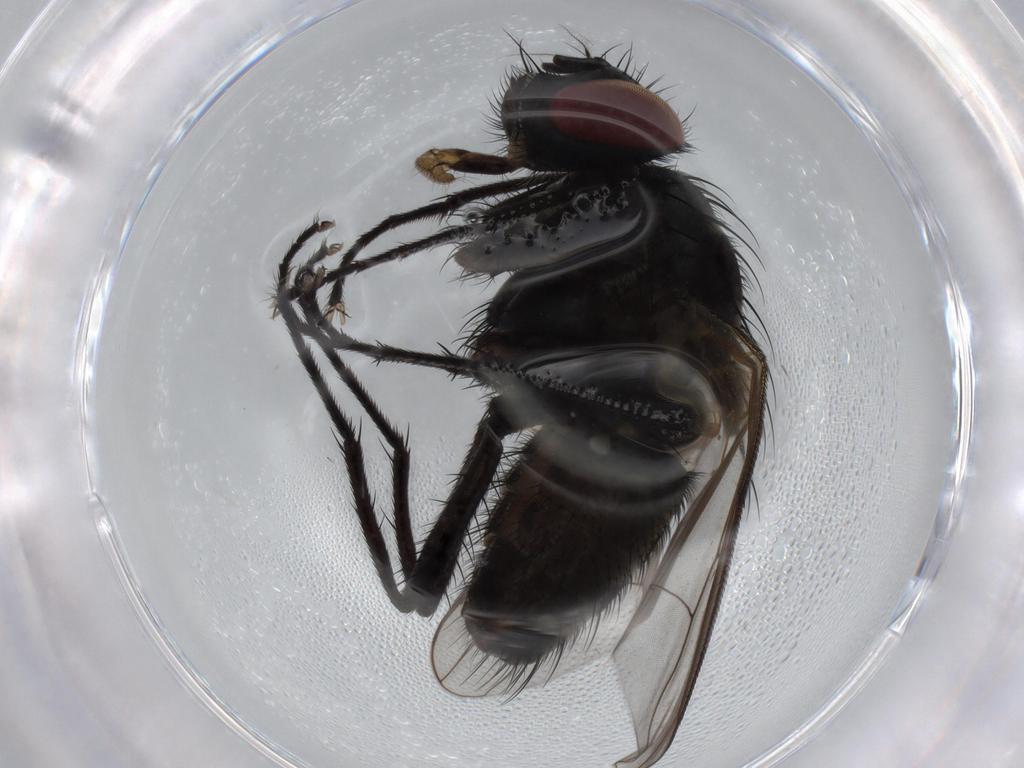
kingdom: Animalia
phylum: Arthropoda
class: Insecta
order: Diptera
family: Muscidae
